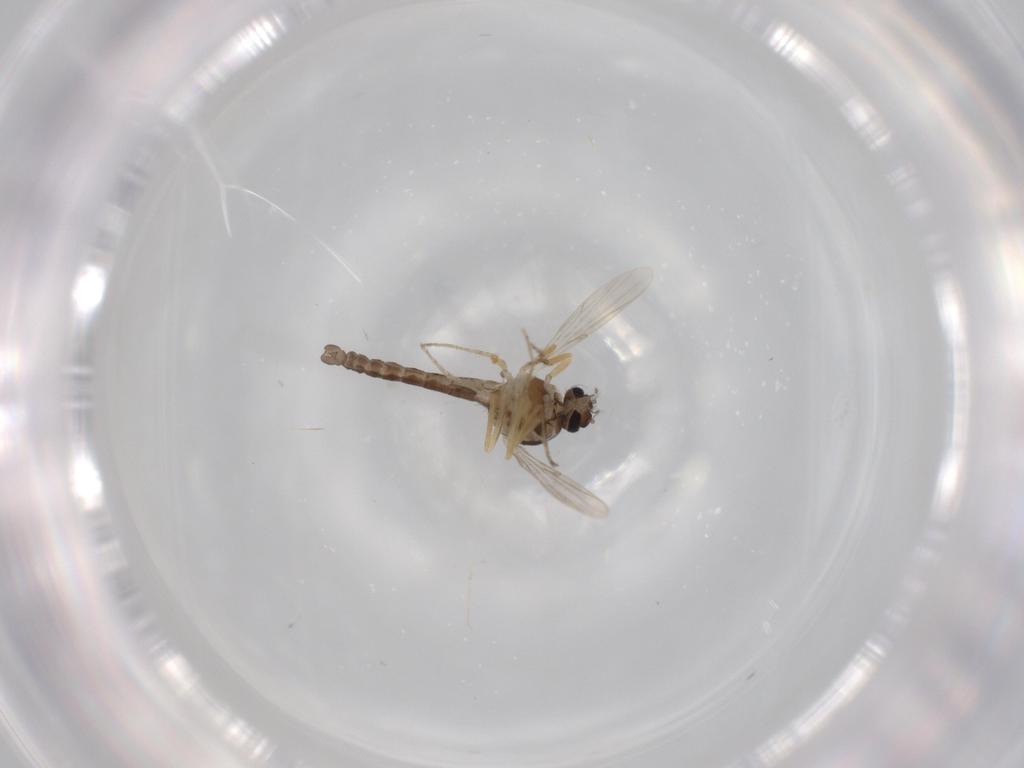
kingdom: Animalia
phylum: Arthropoda
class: Insecta
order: Diptera
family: Ceratopogonidae
